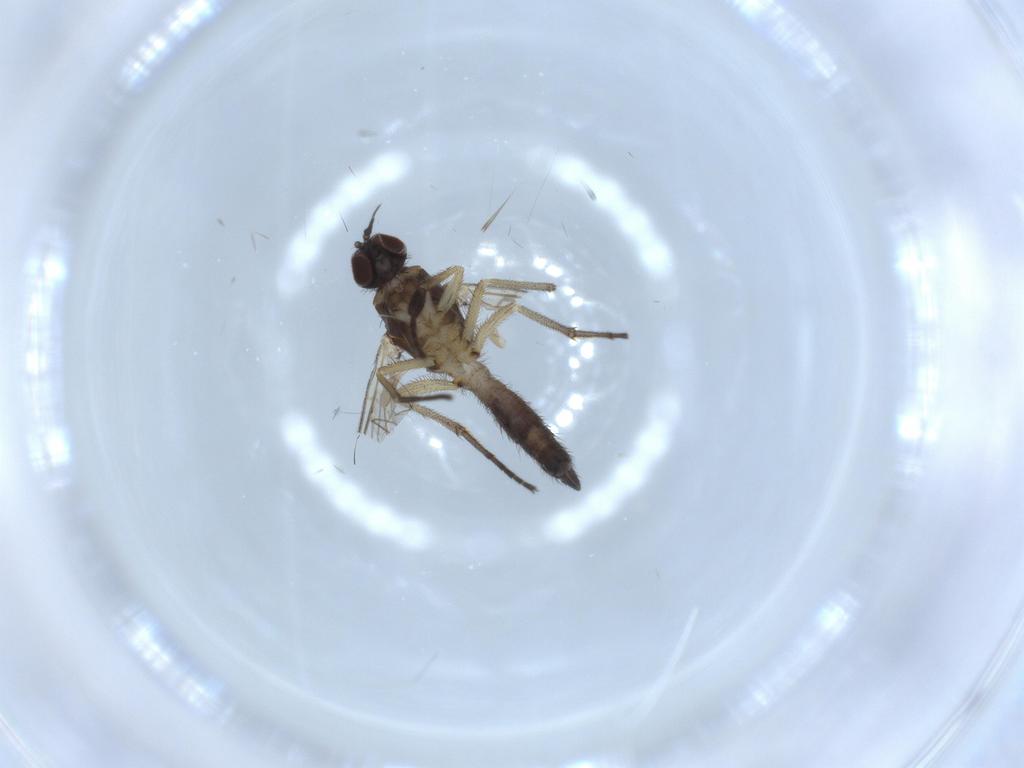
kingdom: Animalia
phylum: Arthropoda
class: Insecta
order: Diptera
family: Empididae
